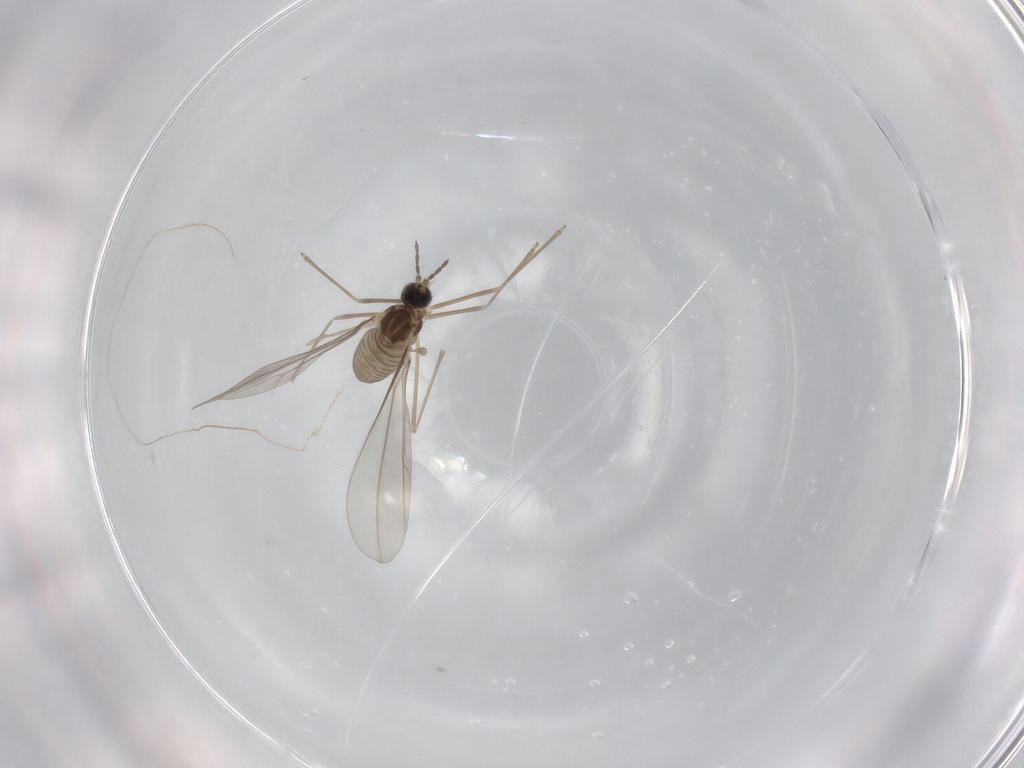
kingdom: Animalia
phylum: Arthropoda
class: Insecta
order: Diptera
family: Cecidomyiidae
